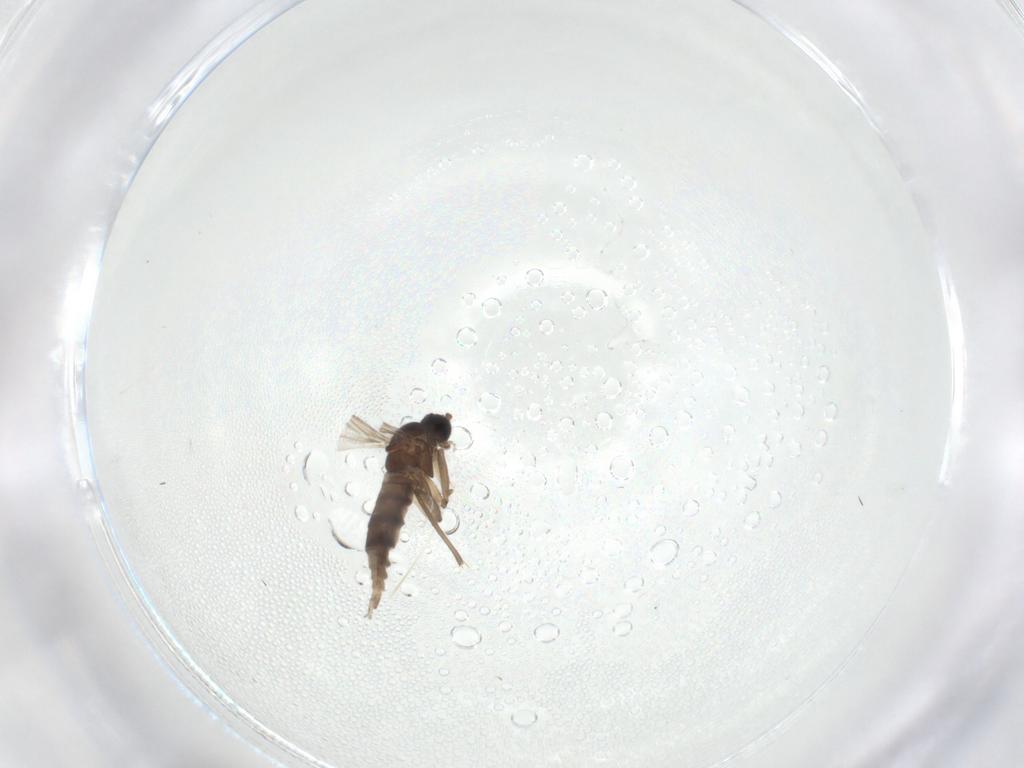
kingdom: Animalia
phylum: Arthropoda
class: Insecta
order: Diptera
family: Sciaridae
